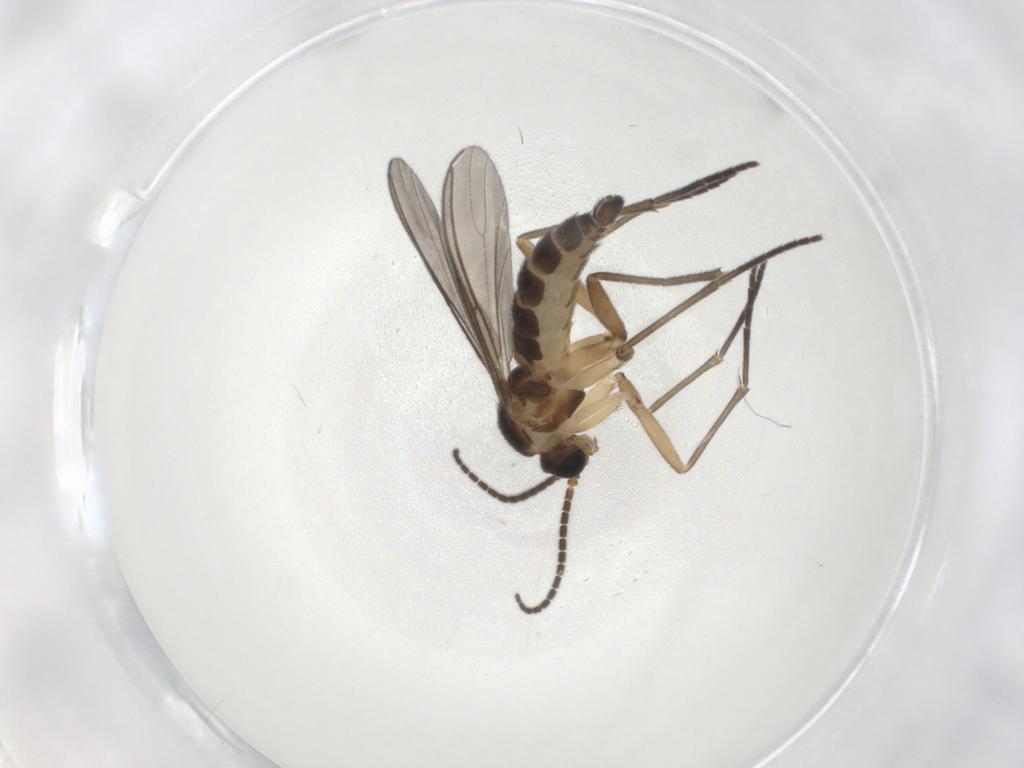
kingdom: Animalia
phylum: Arthropoda
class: Insecta
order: Diptera
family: Sciaridae
